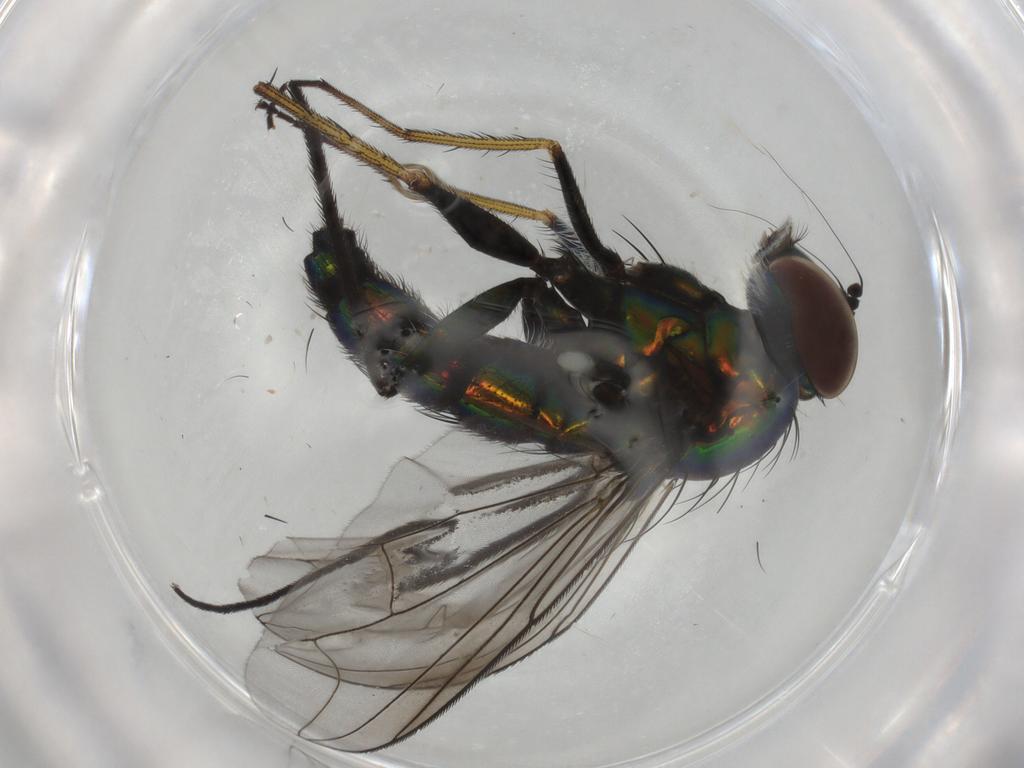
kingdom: Animalia
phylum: Arthropoda
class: Insecta
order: Diptera
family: Dolichopodidae
